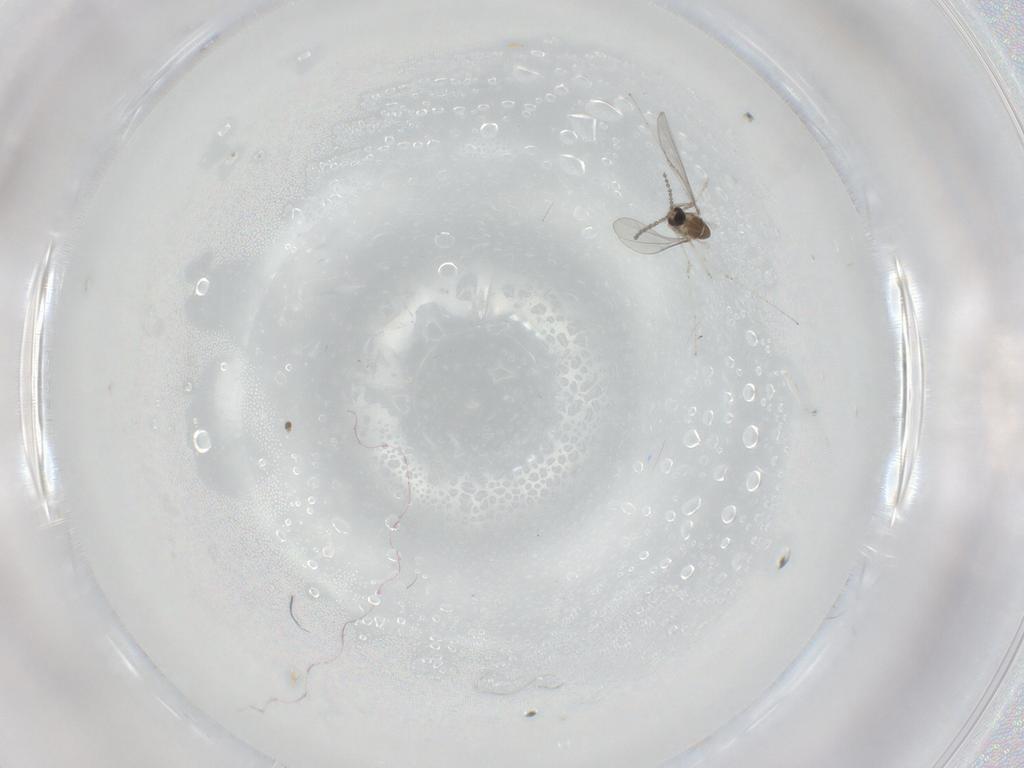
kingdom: Animalia
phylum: Arthropoda
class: Insecta
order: Diptera
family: Cecidomyiidae
